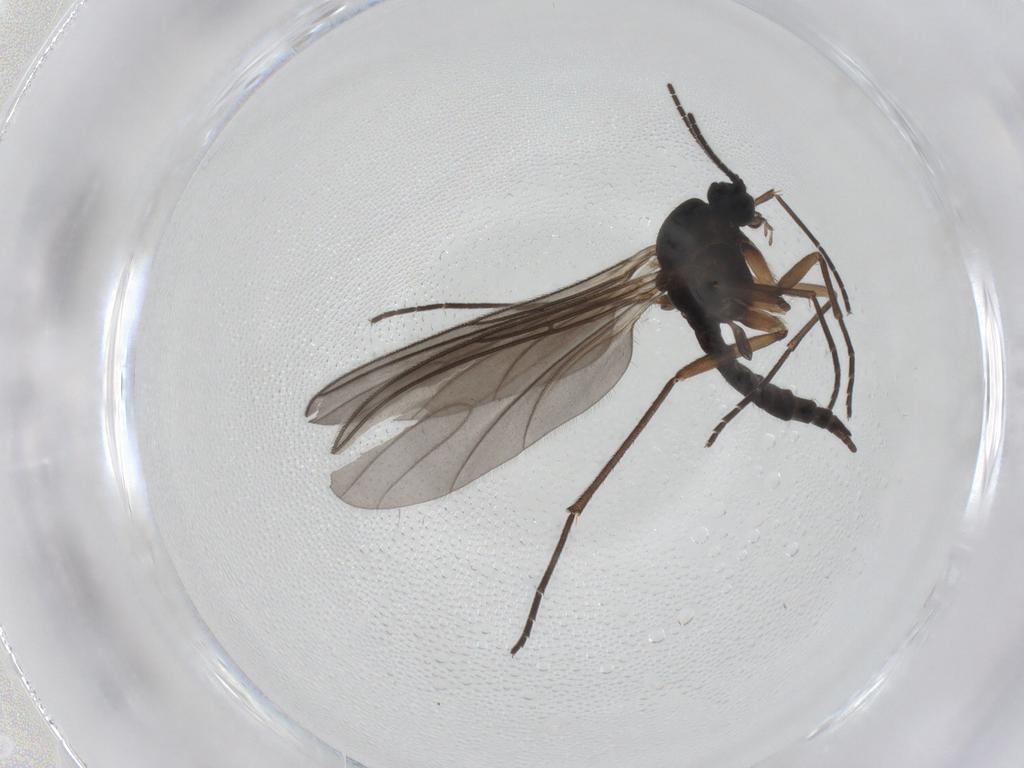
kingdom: Animalia
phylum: Arthropoda
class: Insecta
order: Diptera
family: Sciaridae
